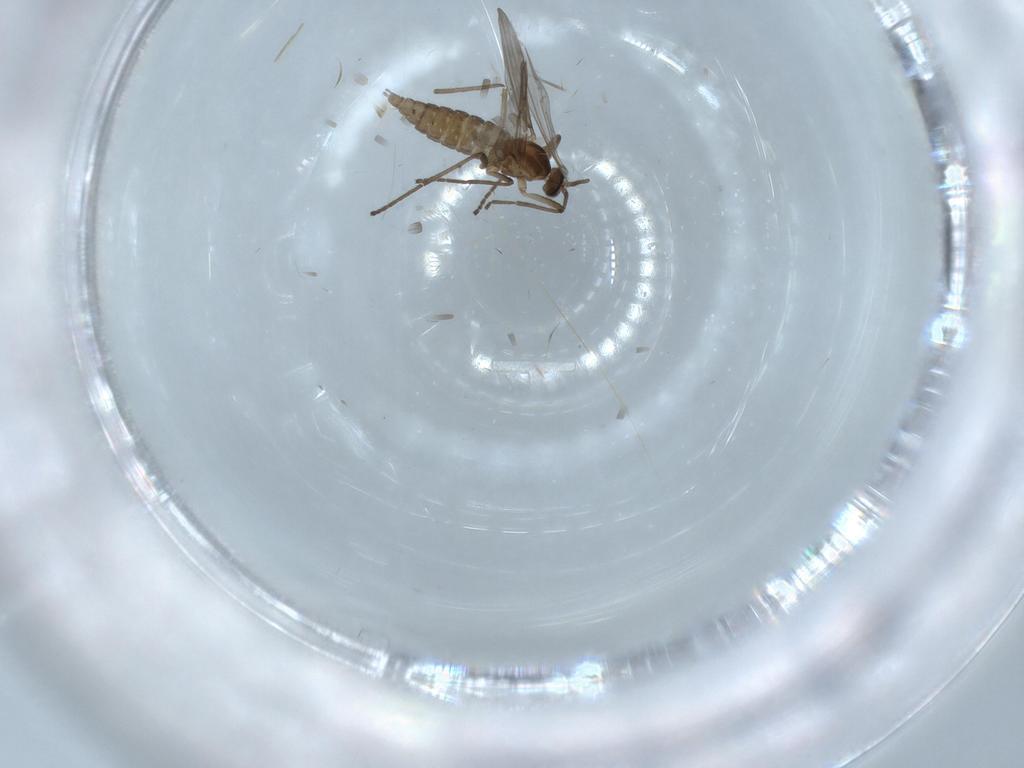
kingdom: Animalia
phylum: Arthropoda
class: Insecta
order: Diptera
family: Cecidomyiidae
